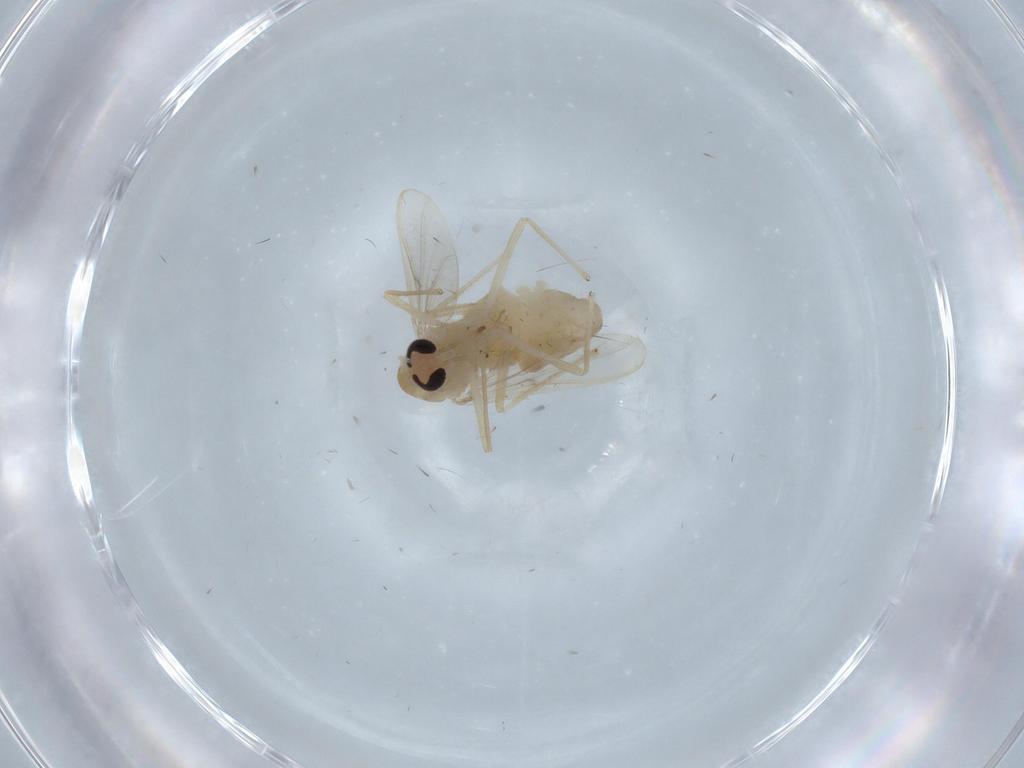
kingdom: Animalia
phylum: Arthropoda
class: Insecta
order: Diptera
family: Chironomidae
